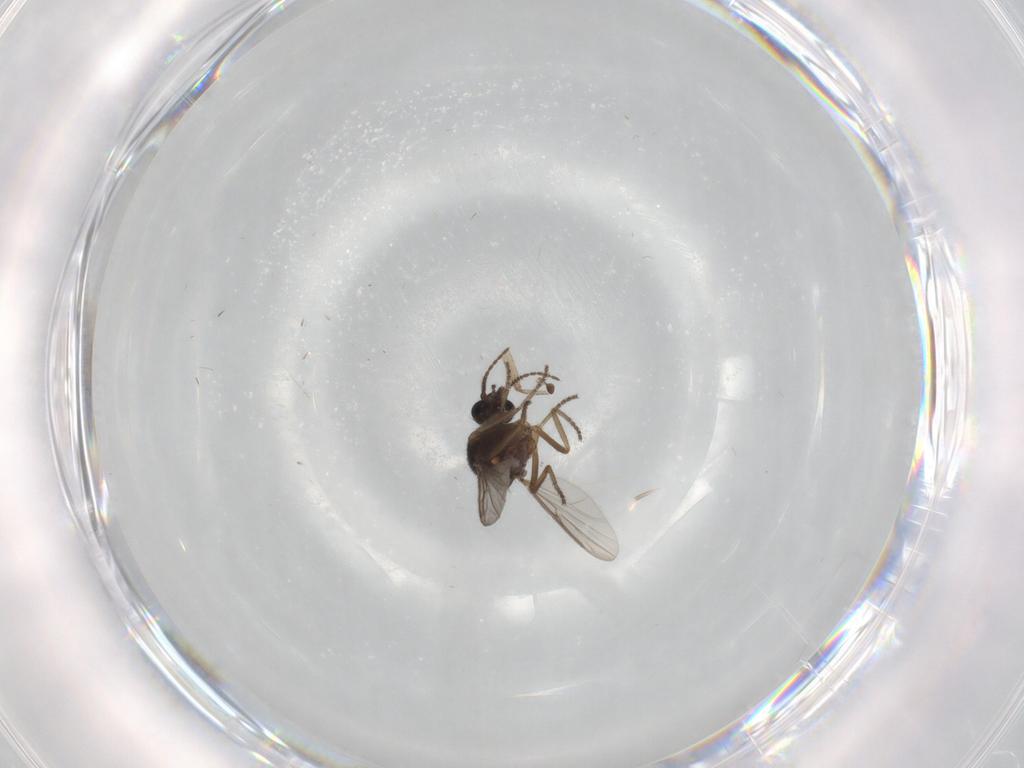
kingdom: Animalia
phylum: Arthropoda
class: Insecta
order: Diptera
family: Ceratopogonidae
